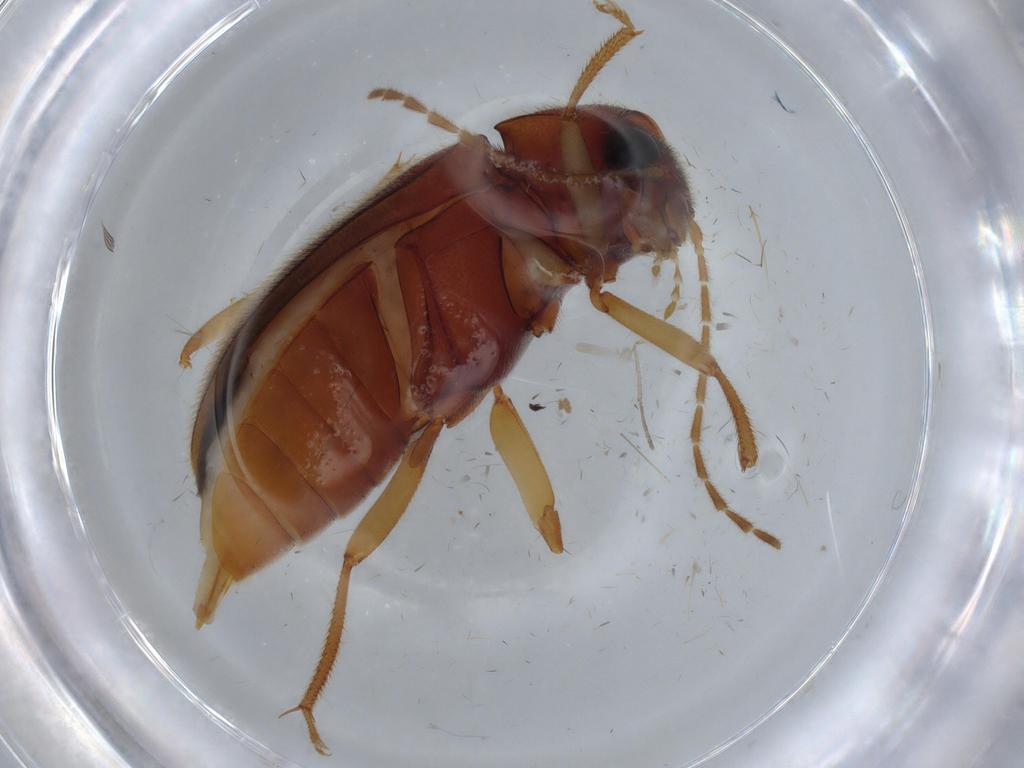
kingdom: Animalia
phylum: Arthropoda
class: Insecta
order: Coleoptera
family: Ptilodactylidae
